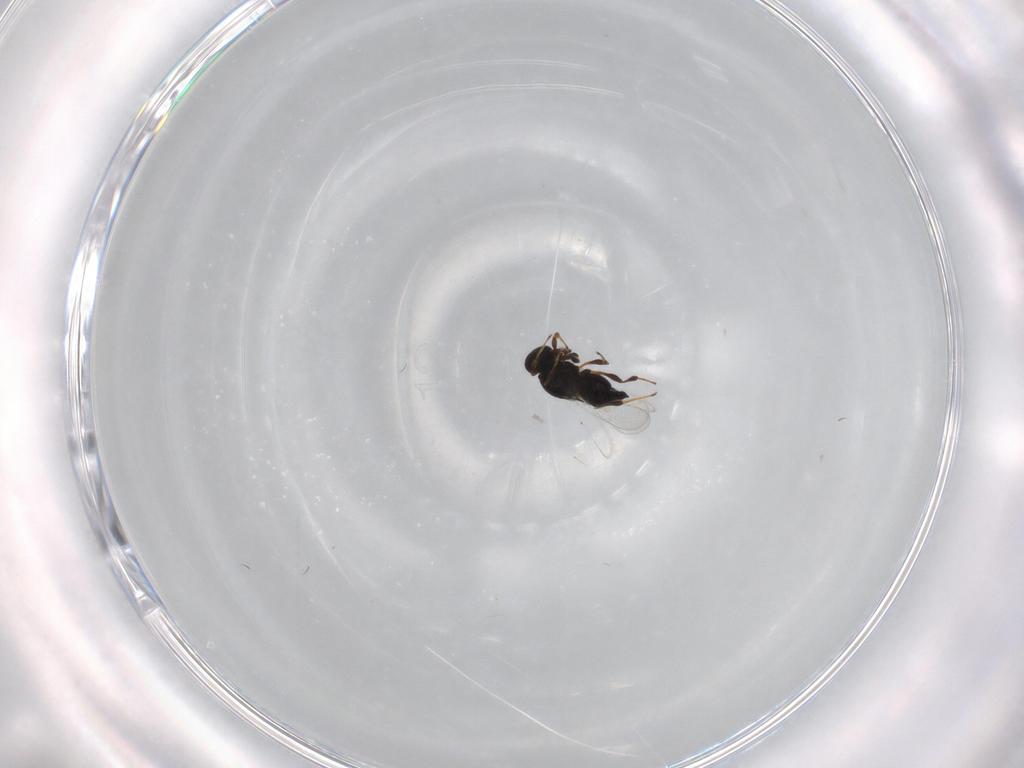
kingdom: Animalia
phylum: Arthropoda
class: Insecta
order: Hymenoptera
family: Platygastridae
